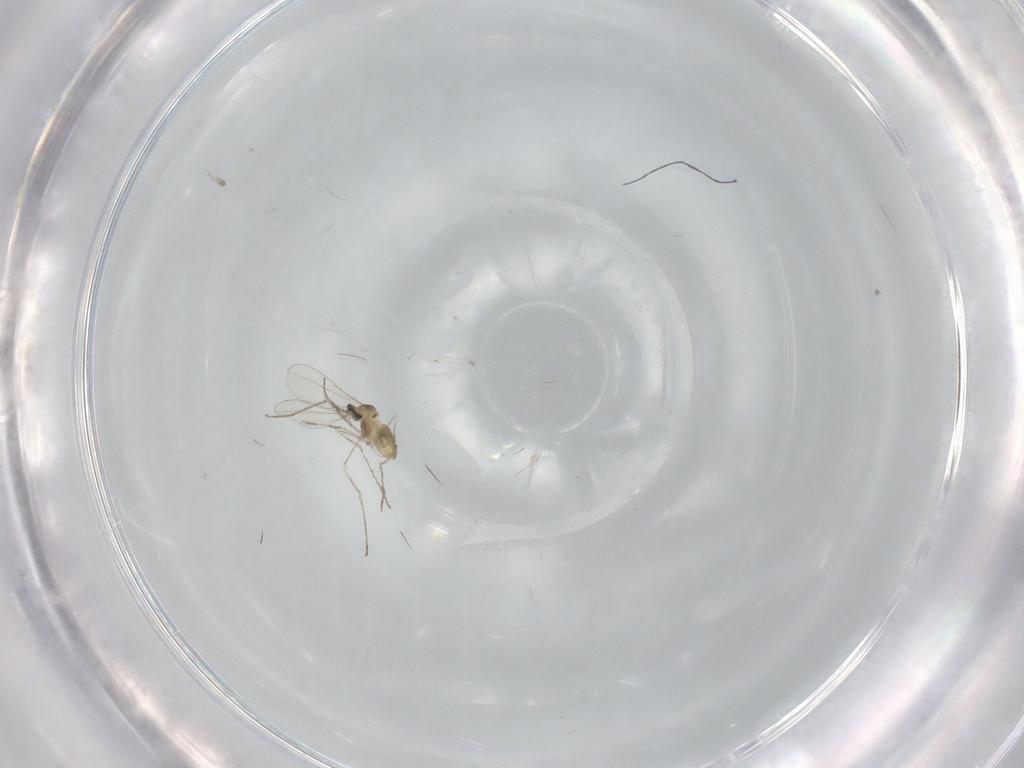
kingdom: Animalia
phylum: Arthropoda
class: Insecta
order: Diptera
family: Cecidomyiidae
